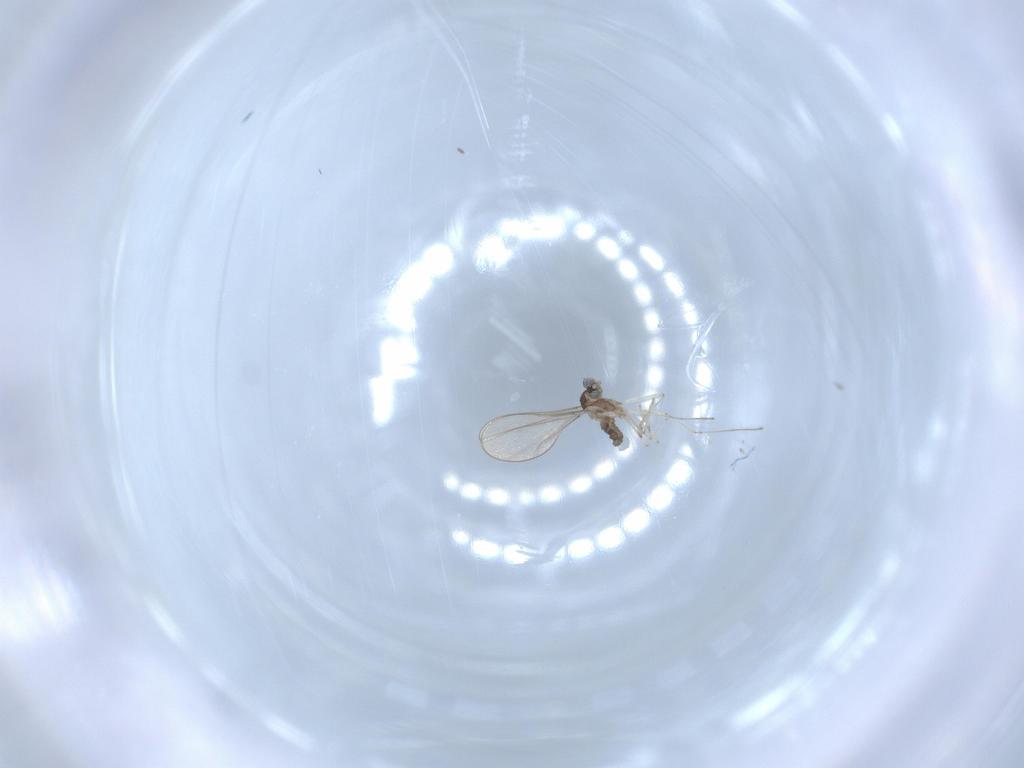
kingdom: Animalia
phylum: Arthropoda
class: Insecta
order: Diptera
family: Cecidomyiidae
